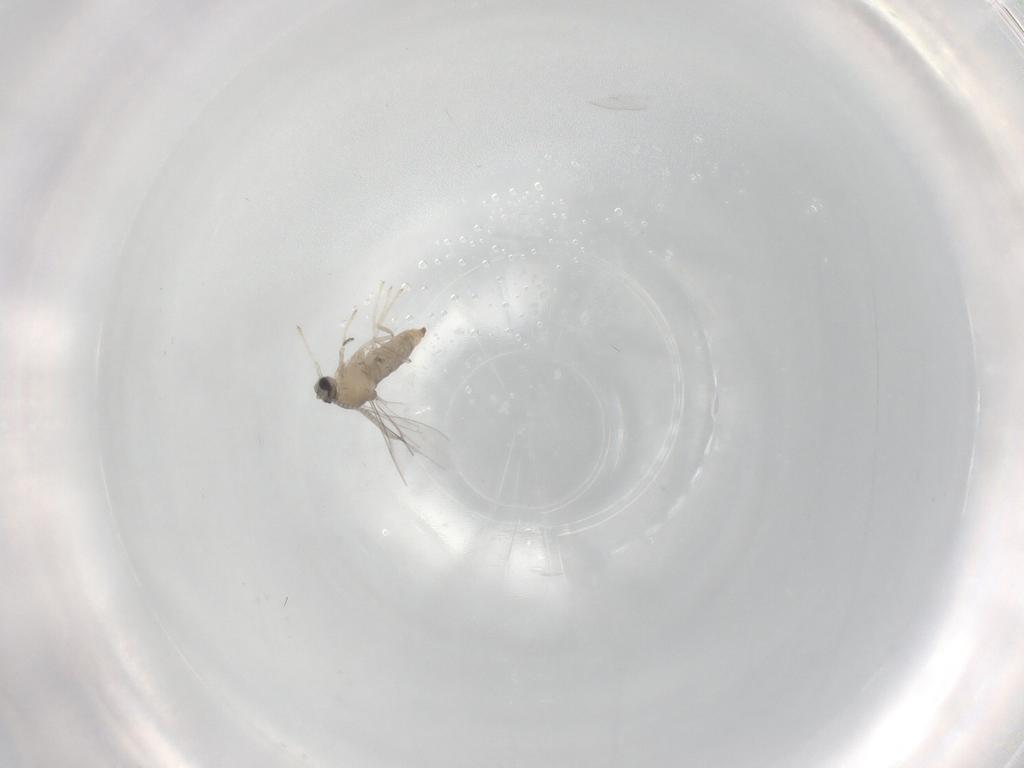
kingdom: Animalia
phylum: Arthropoda
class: Insecta
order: Diptera
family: Cecidomyiidae
